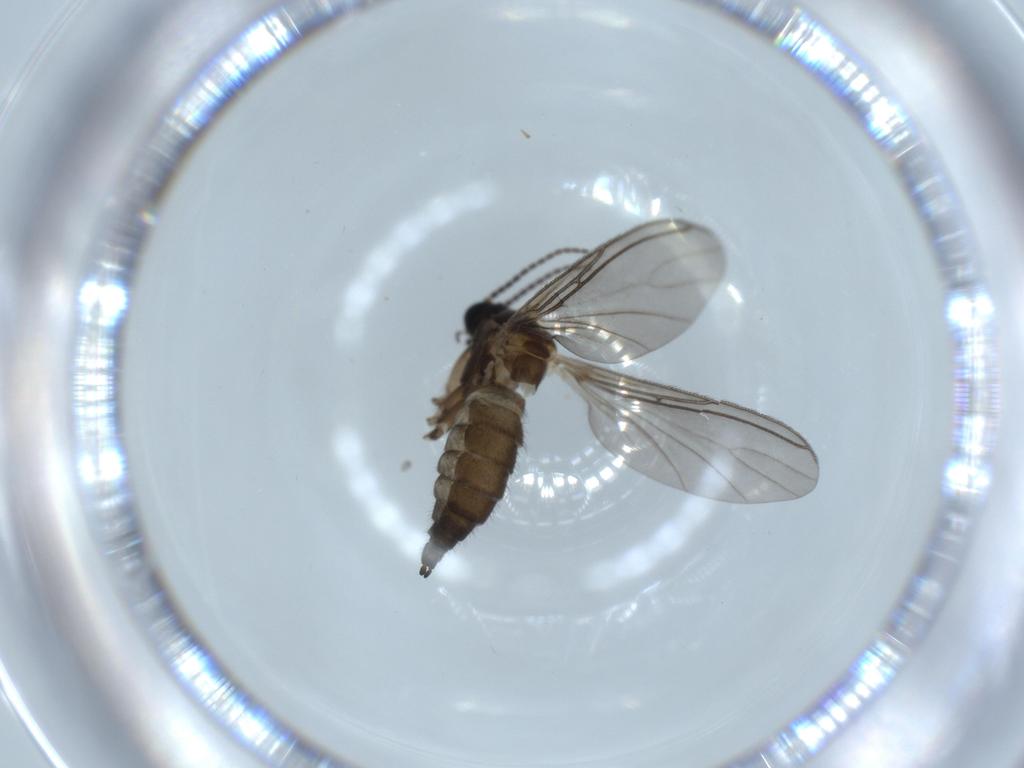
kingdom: Animalia
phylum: Arthropoda
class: Insecta
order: Diptera
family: Sciaridae
